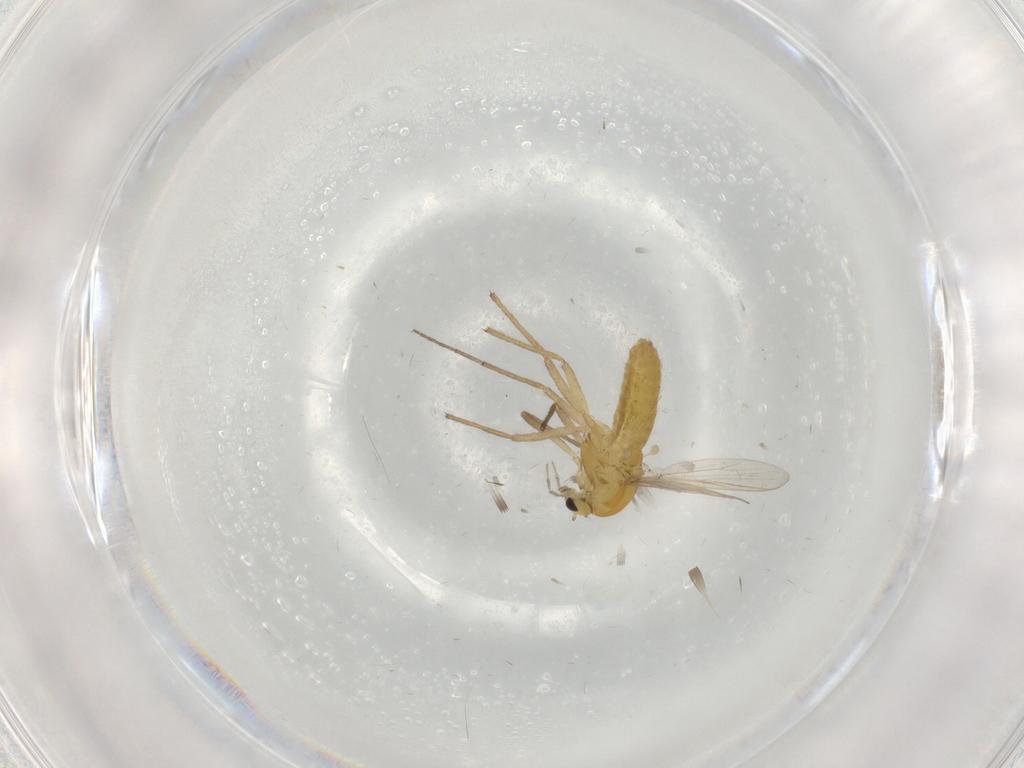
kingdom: Animalia
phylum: Arthropoda
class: Insecta
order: Diptera
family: Chironomidae
